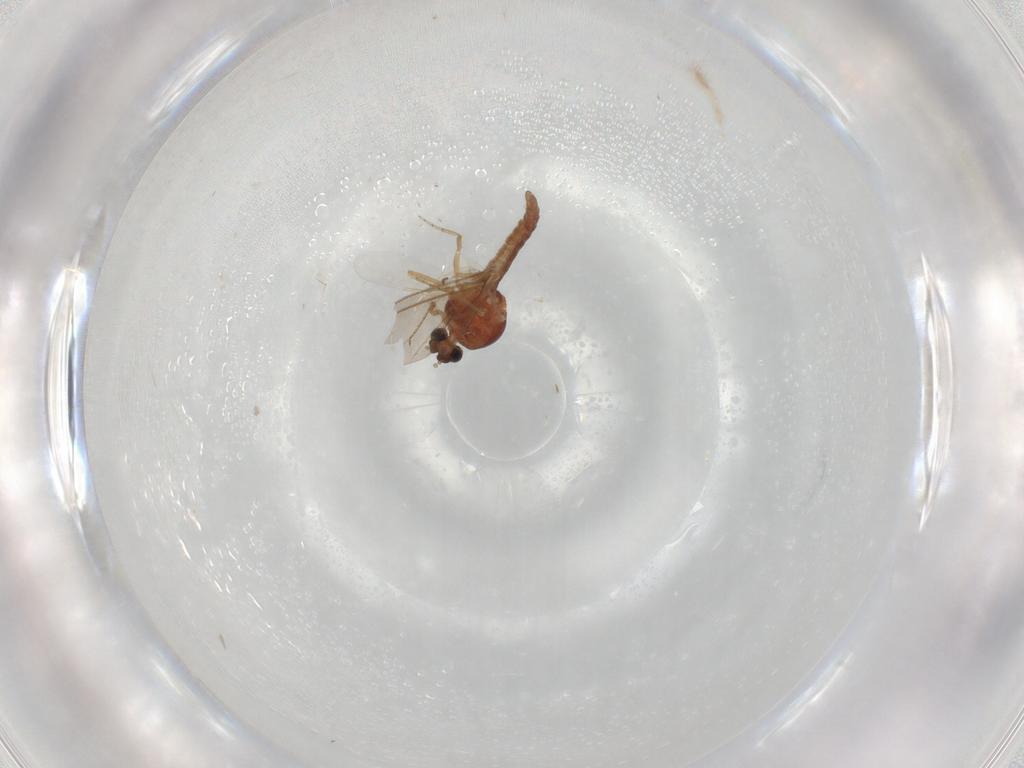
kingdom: Animalia
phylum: Arthropoda
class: Insecta
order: Diptera
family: Sciaridae
